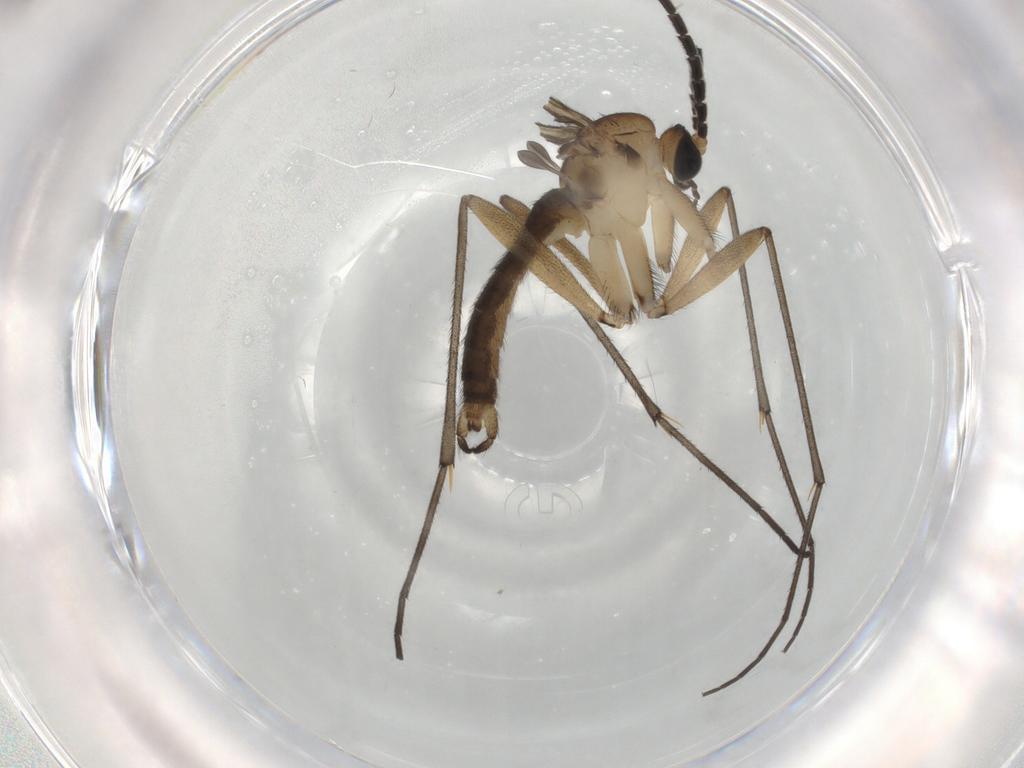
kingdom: Animalia
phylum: Arthropoda
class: Insecta
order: Diptera
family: Sciaridae
